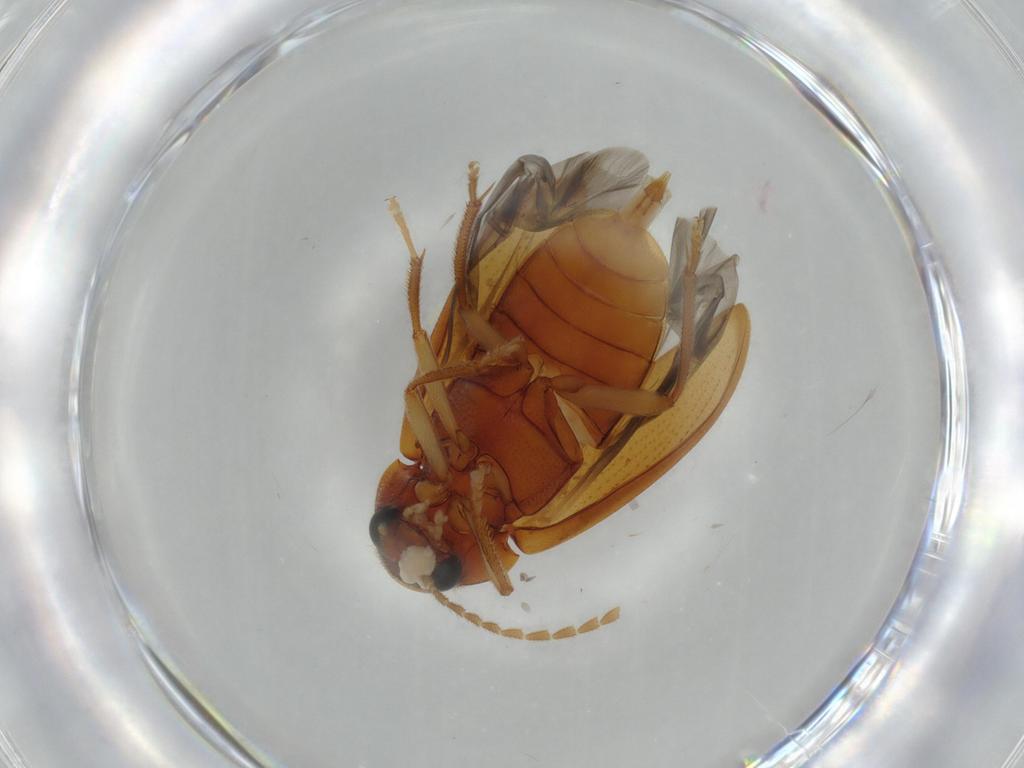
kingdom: Animalia
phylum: Arthropoda
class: Insecta
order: Coleoptera
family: Ptilodactylidae
